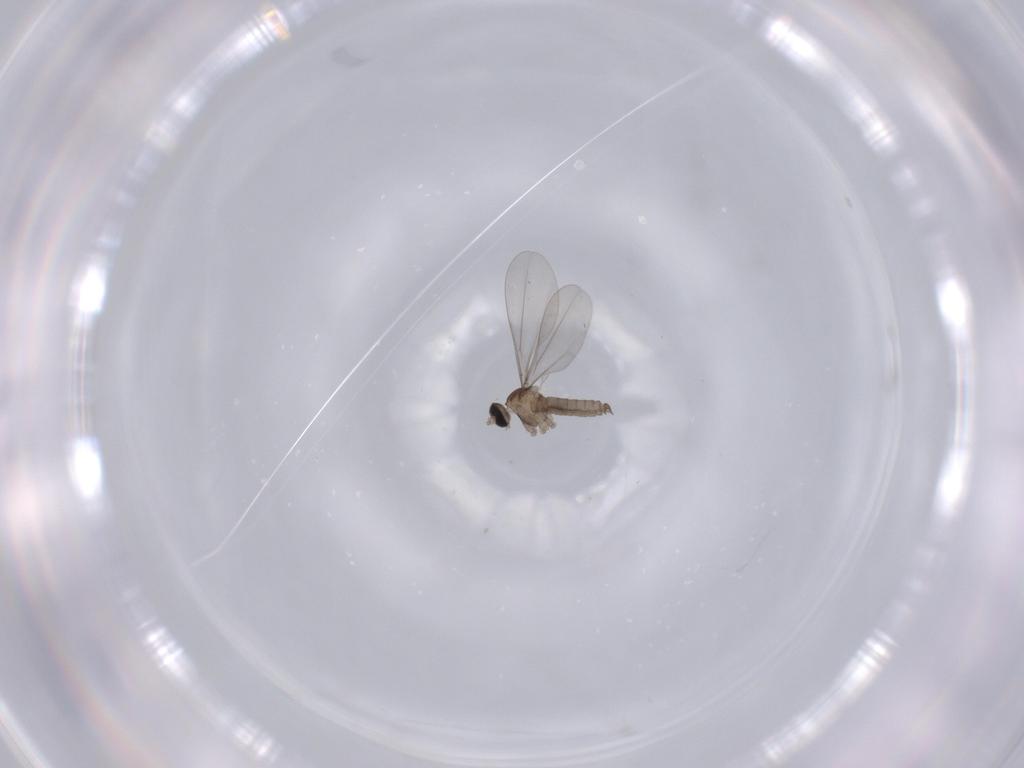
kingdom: Animalia
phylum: Arthropoda
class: Insecta
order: Diptera
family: Cecidomyiidae
